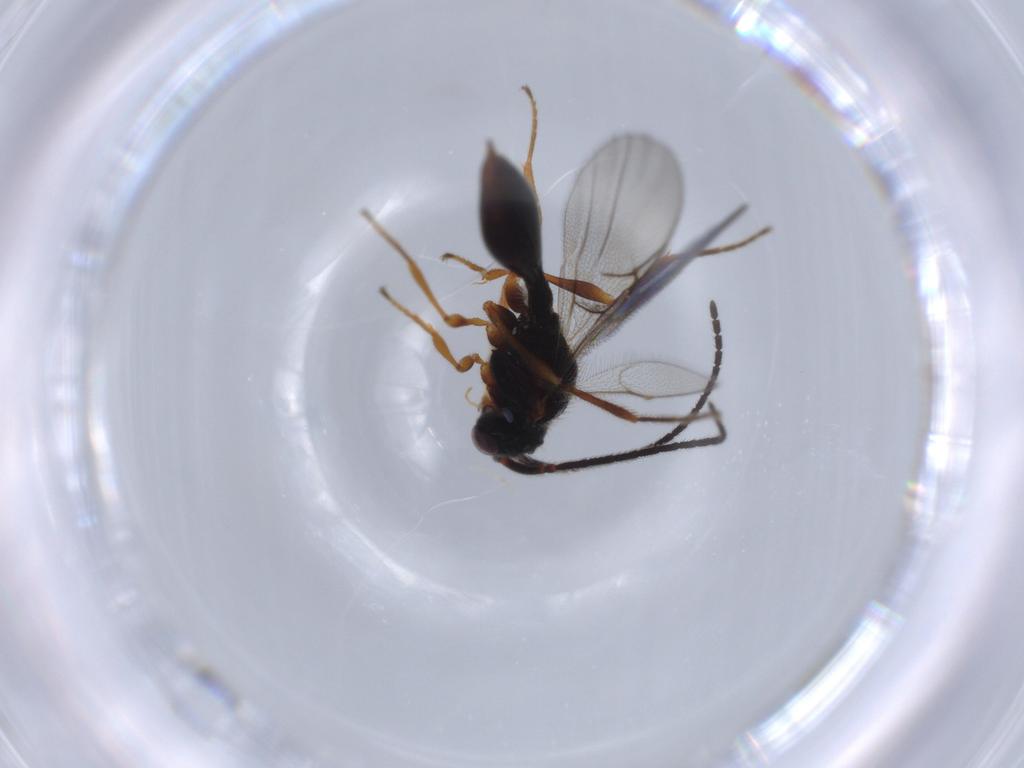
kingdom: Animalia
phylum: Arthropoda
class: Insecta
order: Hymenoptera
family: Diapriidae
